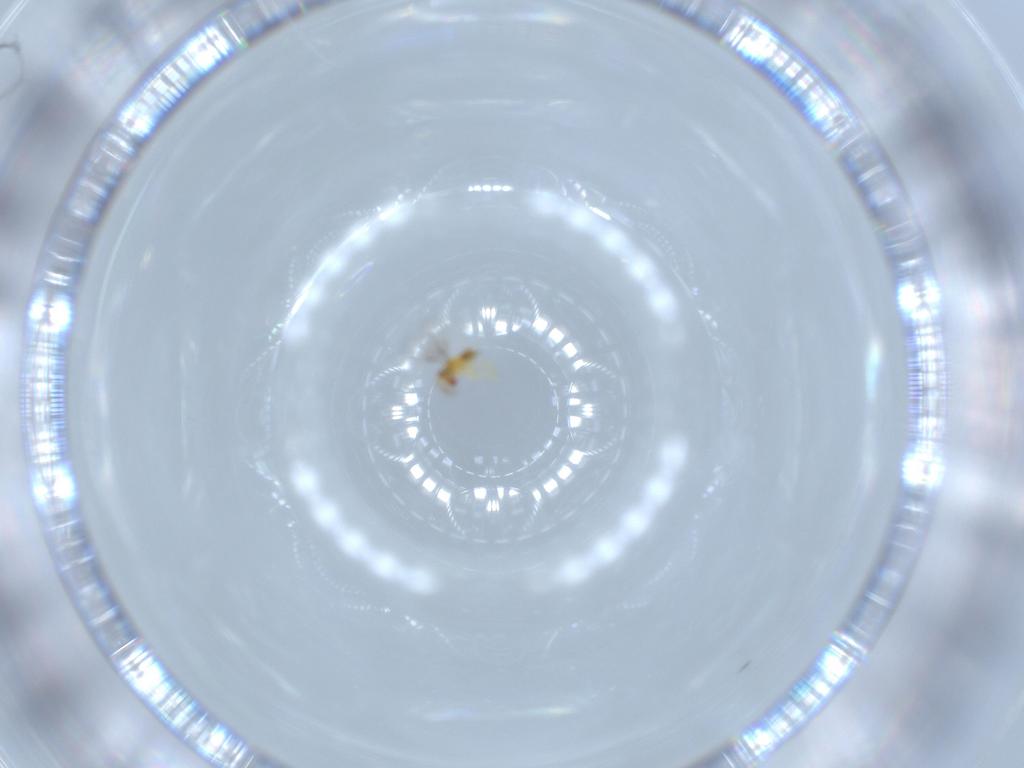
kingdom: Animalia
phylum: Arthropoda
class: Insecta
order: Hymenoptera
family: Trichogrammatidae
